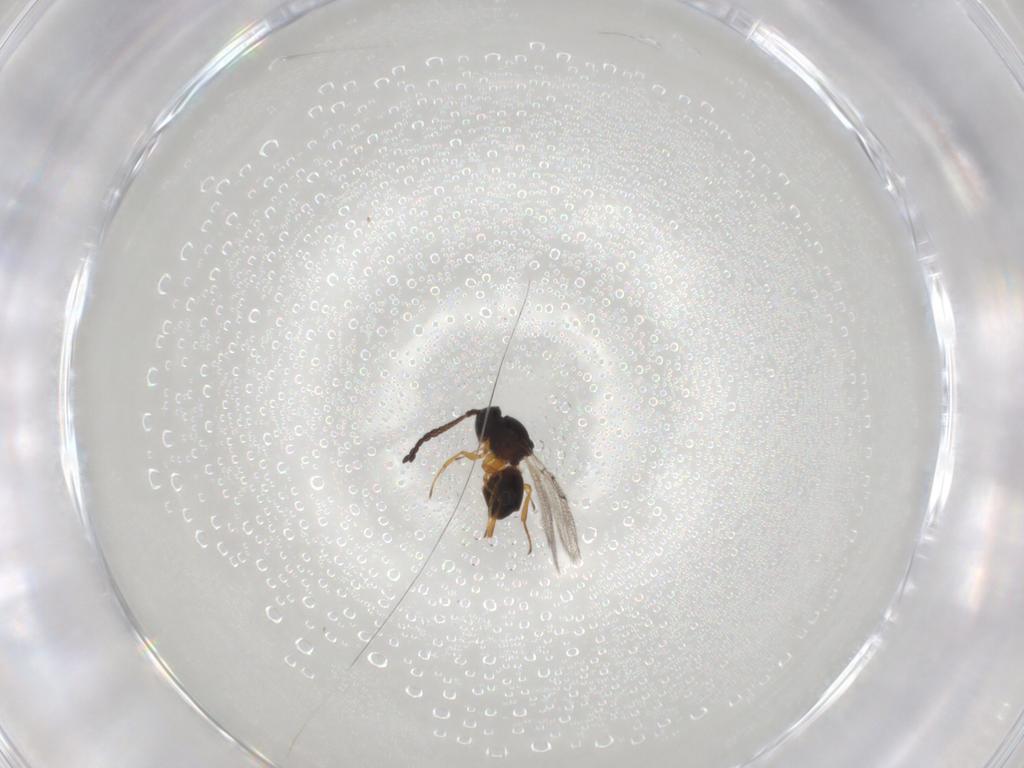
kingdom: Animalia
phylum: Arthropoda
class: Insecta
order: Hymenoptera
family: Figitidae
